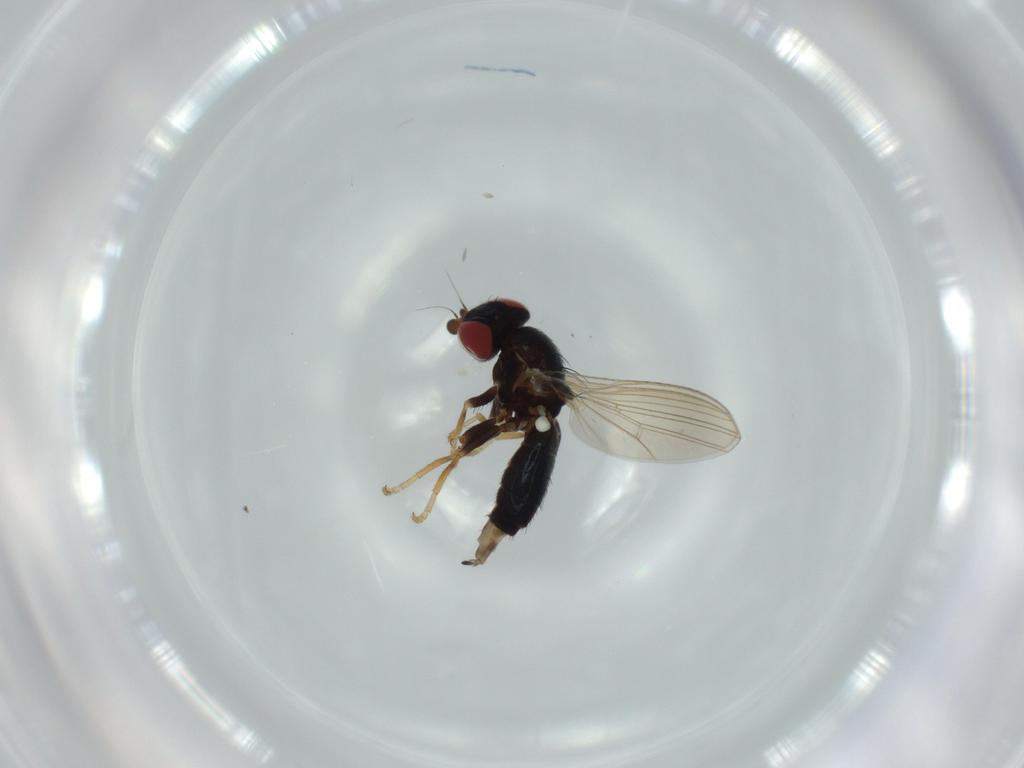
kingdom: Animalia
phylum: Arthropoda
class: Insecta
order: Diptera
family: Chamaemyiidae
